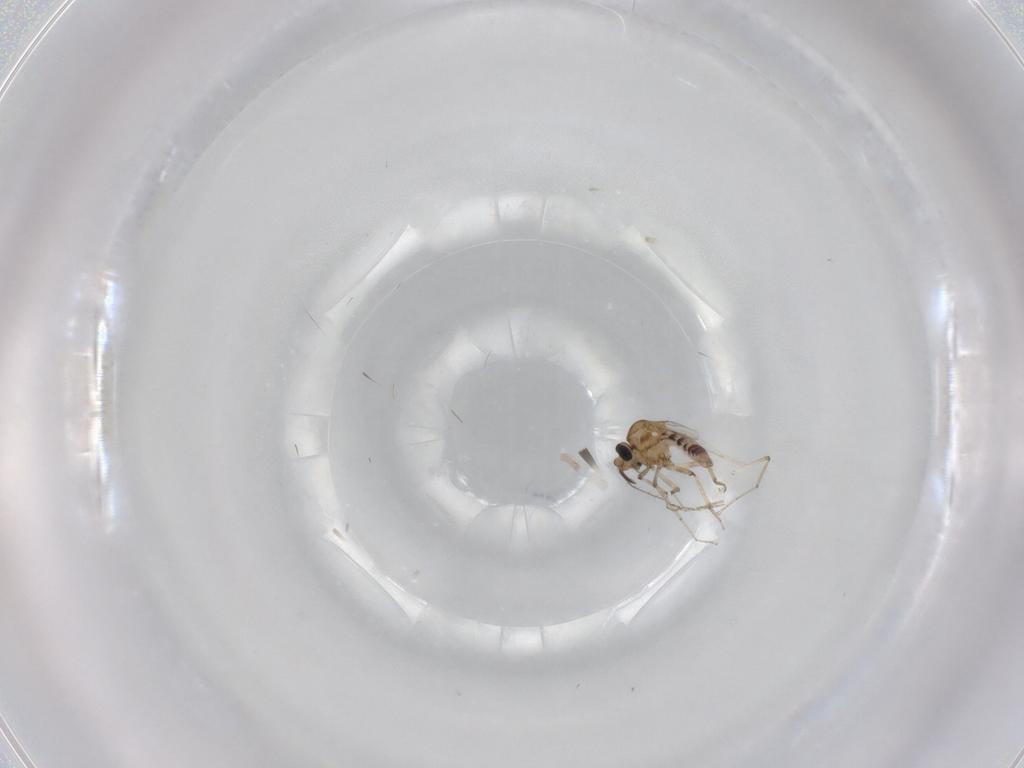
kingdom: Animalia
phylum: Arthropoda
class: Insecta
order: Diptera
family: Ceratopogonidae
